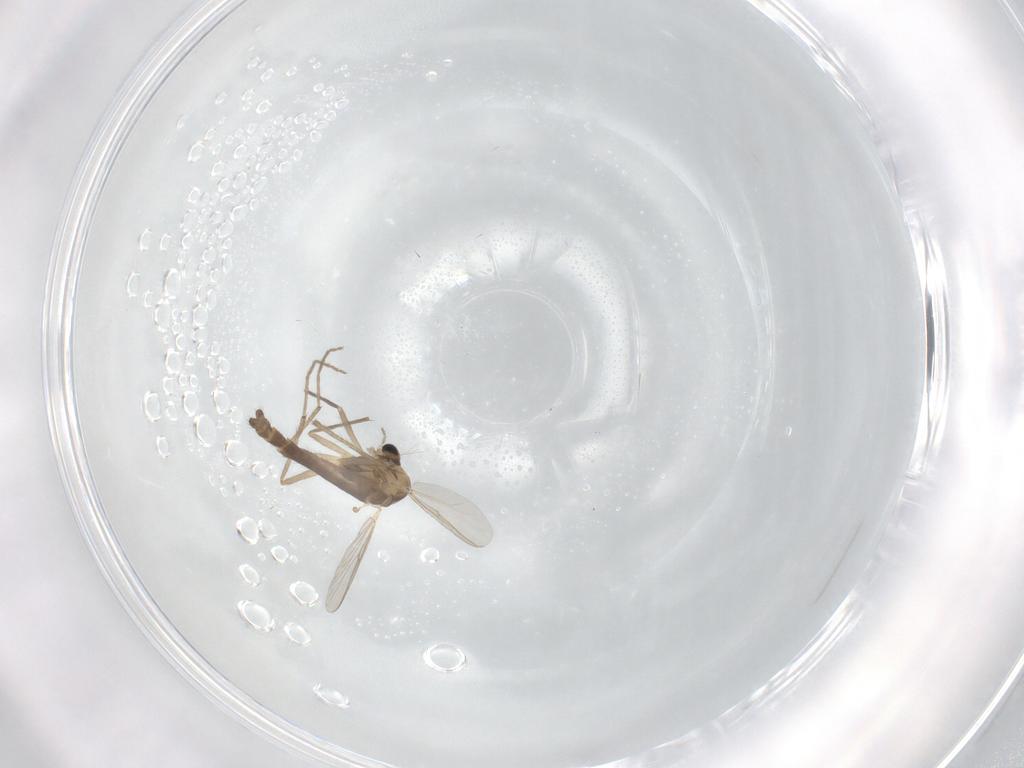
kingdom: Animalia
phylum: Arthropoda
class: Insecta
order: Diptera
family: Chironomidae
